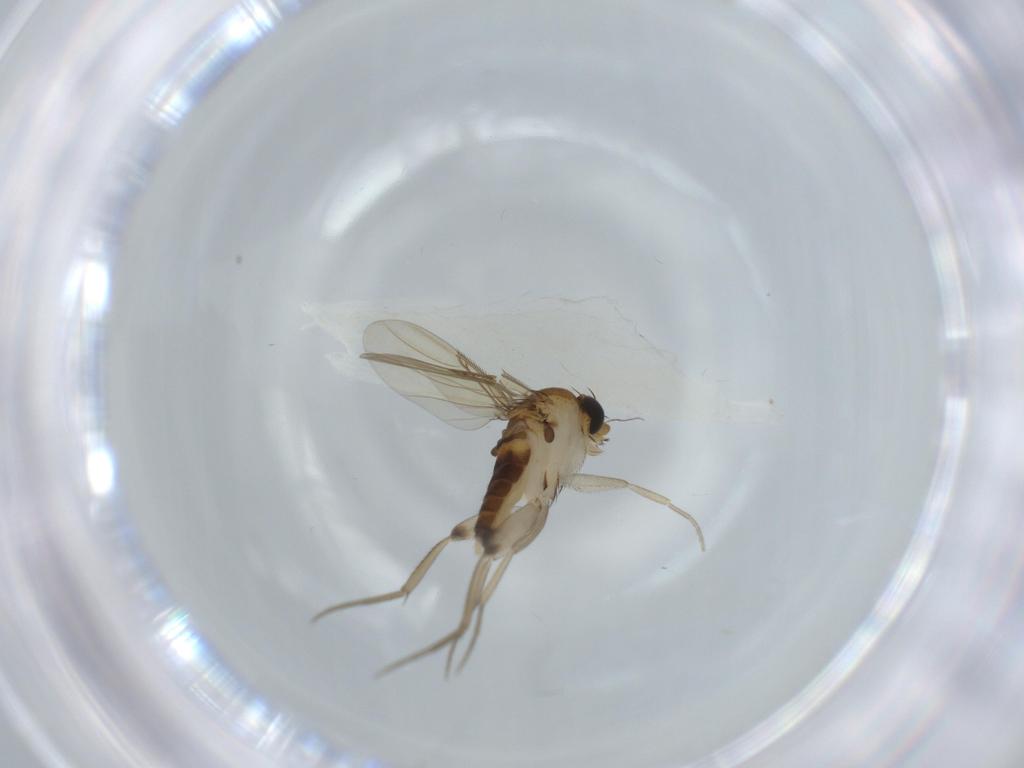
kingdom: Animalia
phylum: Arthropoda
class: Insecta
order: Diptera
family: Phoridae
